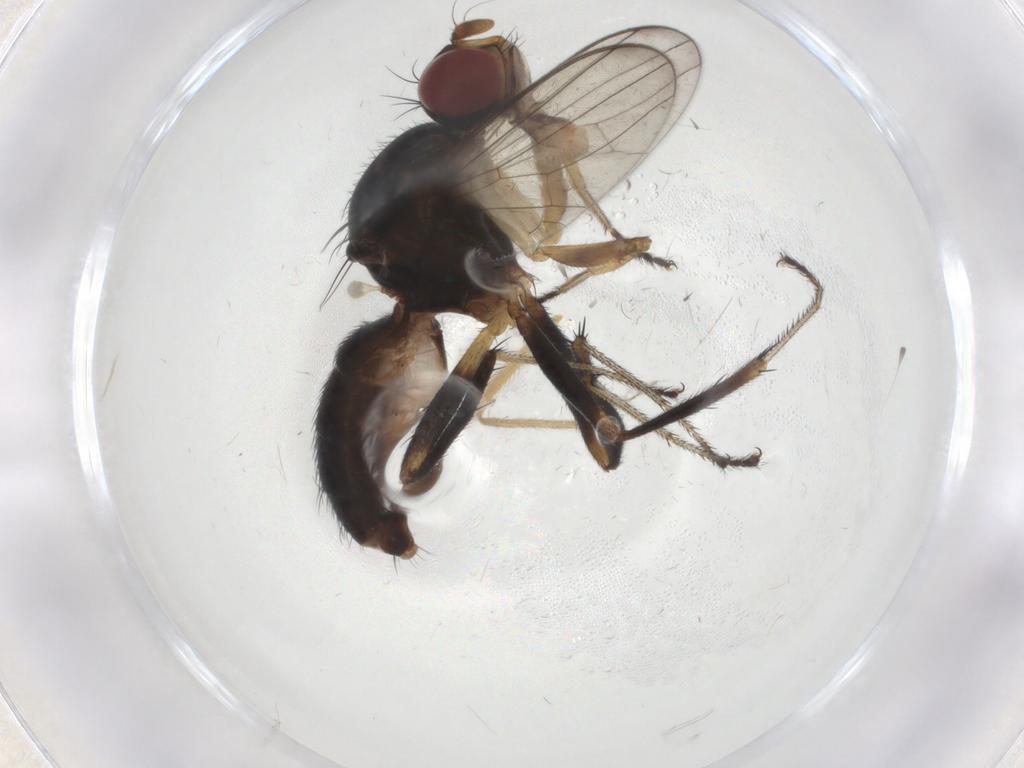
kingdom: Animalia
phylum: Arthropoda
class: Insecta
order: Diptera
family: Sepsidae
